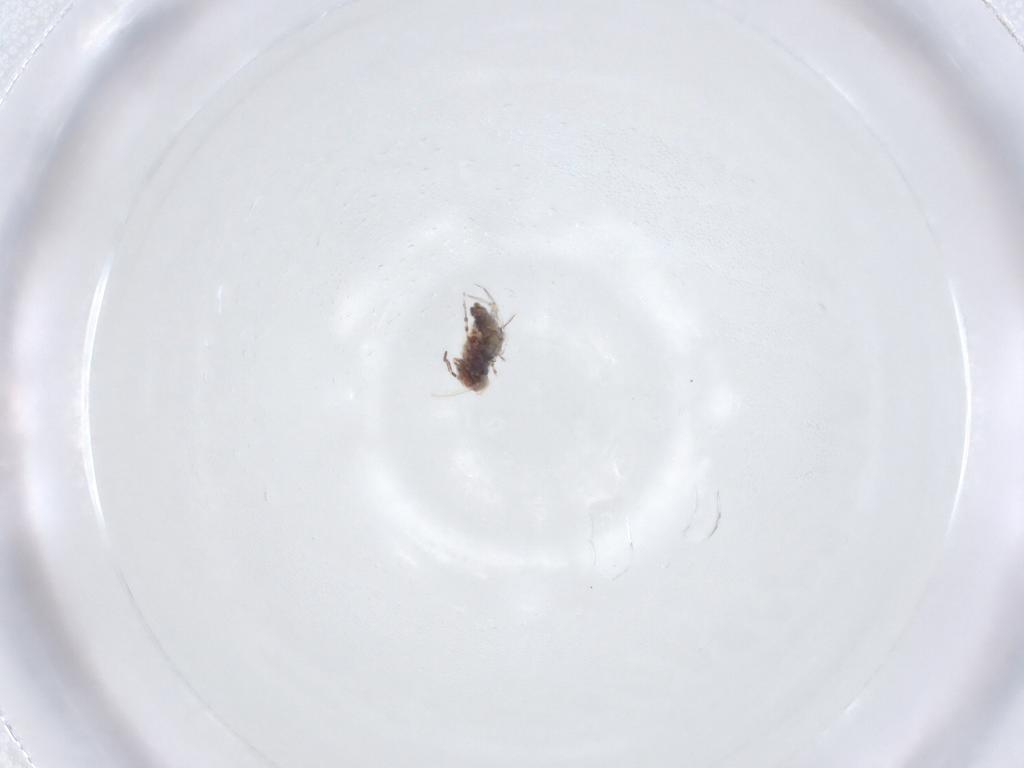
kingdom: Animalia
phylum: Arthropoda
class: Collembola
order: Symphypleona
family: Bourletiellidae
